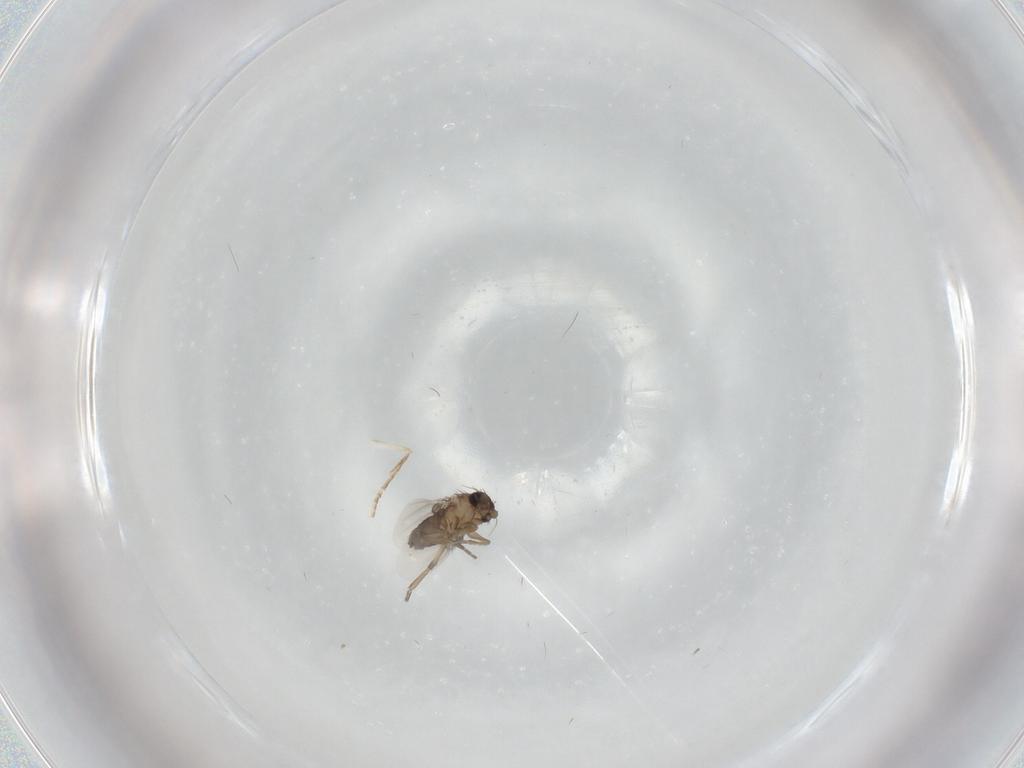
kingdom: Animalia
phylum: Arthropoda
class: Insecta
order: Diptera
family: Phoridae
